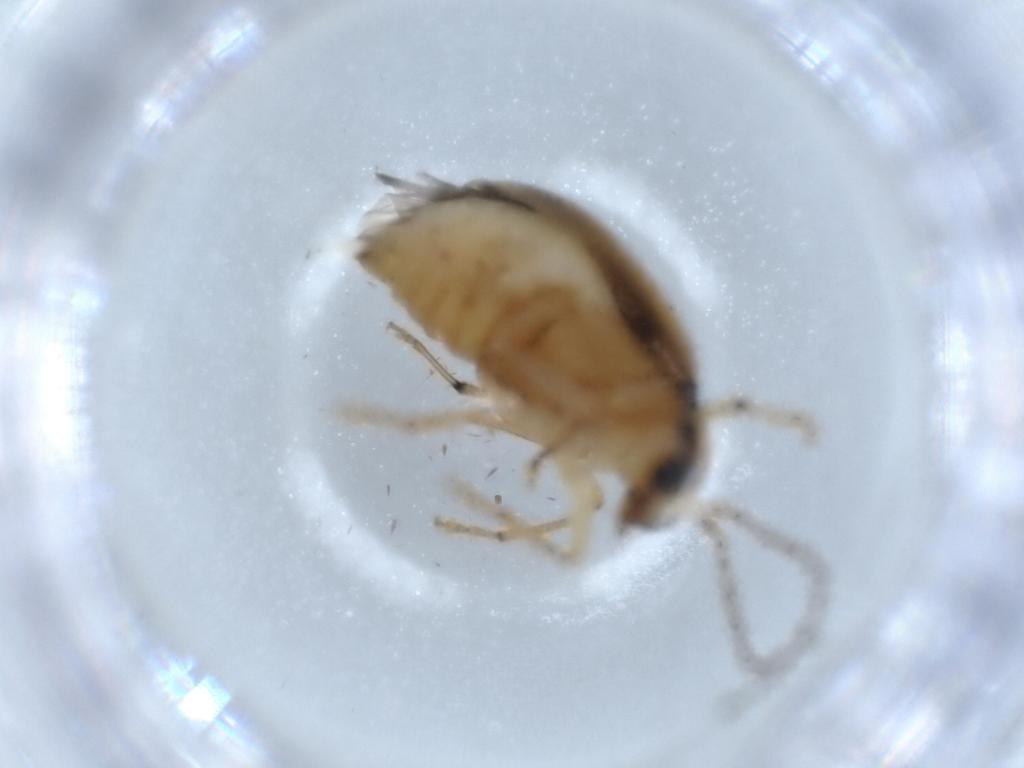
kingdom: Animalia
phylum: Arthropoda
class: Insecta
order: Coleoptera
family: Chrysomelidae
